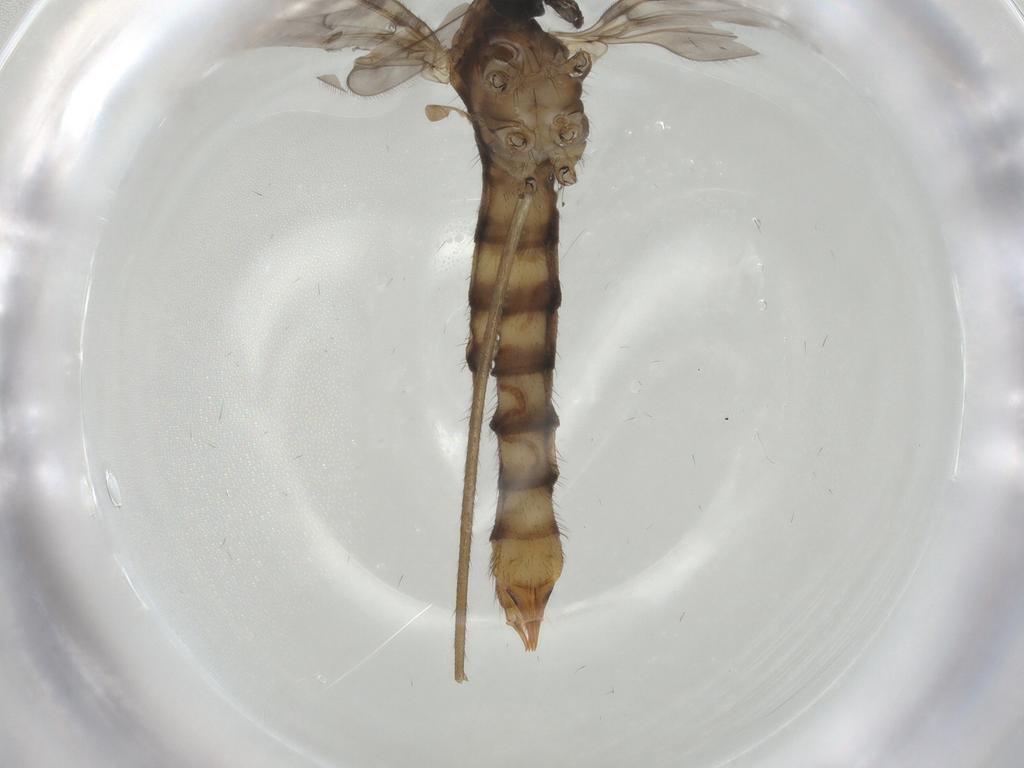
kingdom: Animalia
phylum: Arthropoda
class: Insecta
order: Diptera
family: Limoniidae
